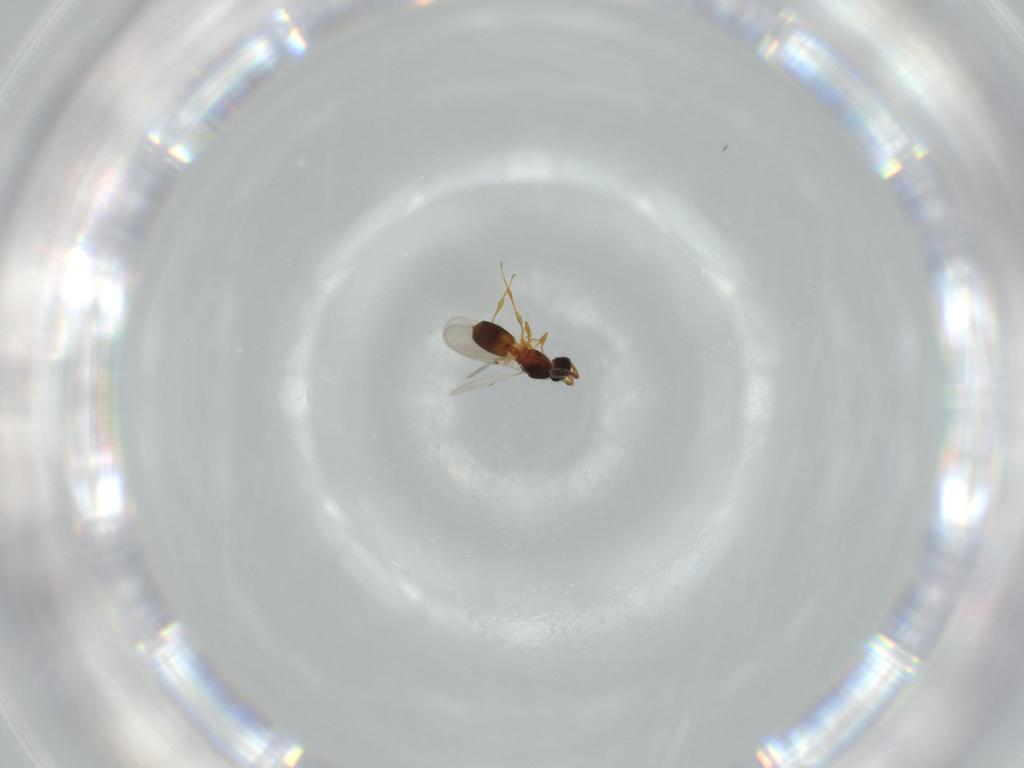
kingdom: Animalia
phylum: Arthropoda
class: Insecta
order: Hymenoptera
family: Diapriidae
